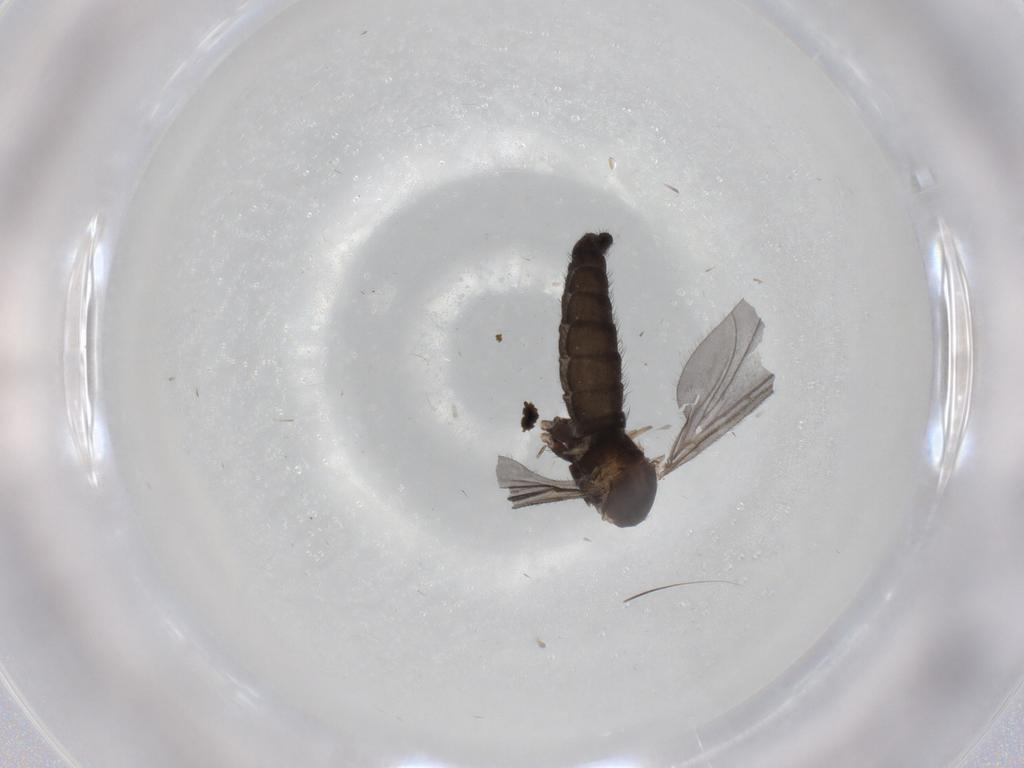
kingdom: Animalia
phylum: Arthropoda
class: Insecta
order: Diptera
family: Sciaridae
